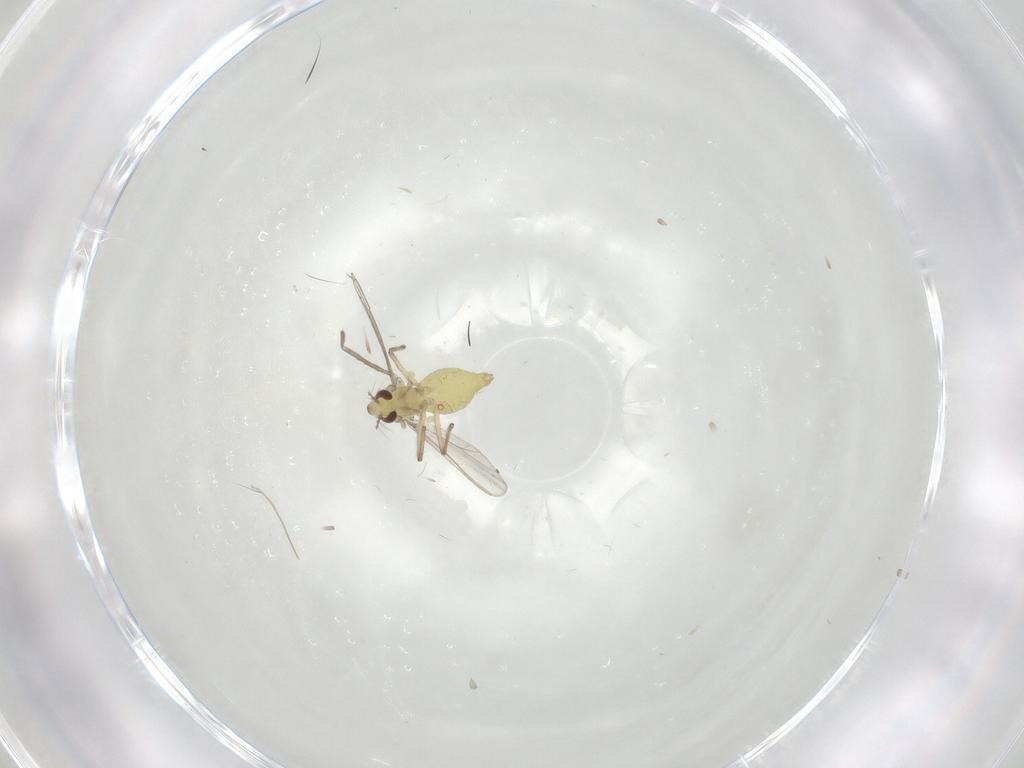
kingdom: Animalia
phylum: Arthropoda
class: Insecta
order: Diptera
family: Chironomidae
